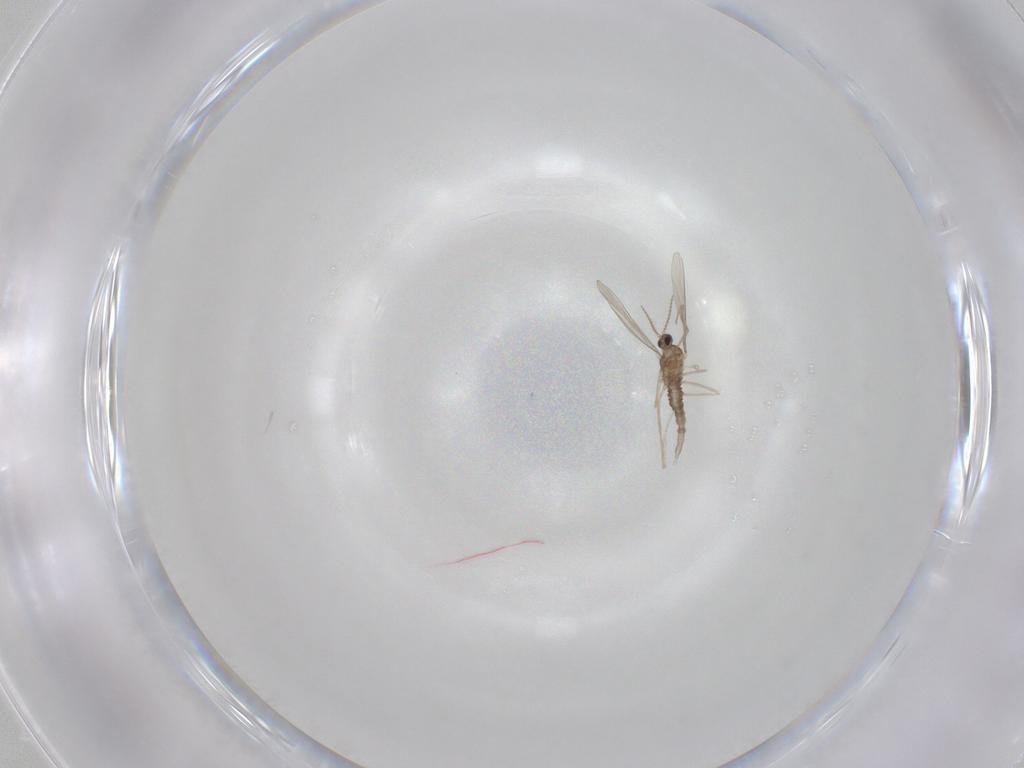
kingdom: Animalia
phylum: Arthropoda
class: Insecta
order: Diptera
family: Chironomidae
